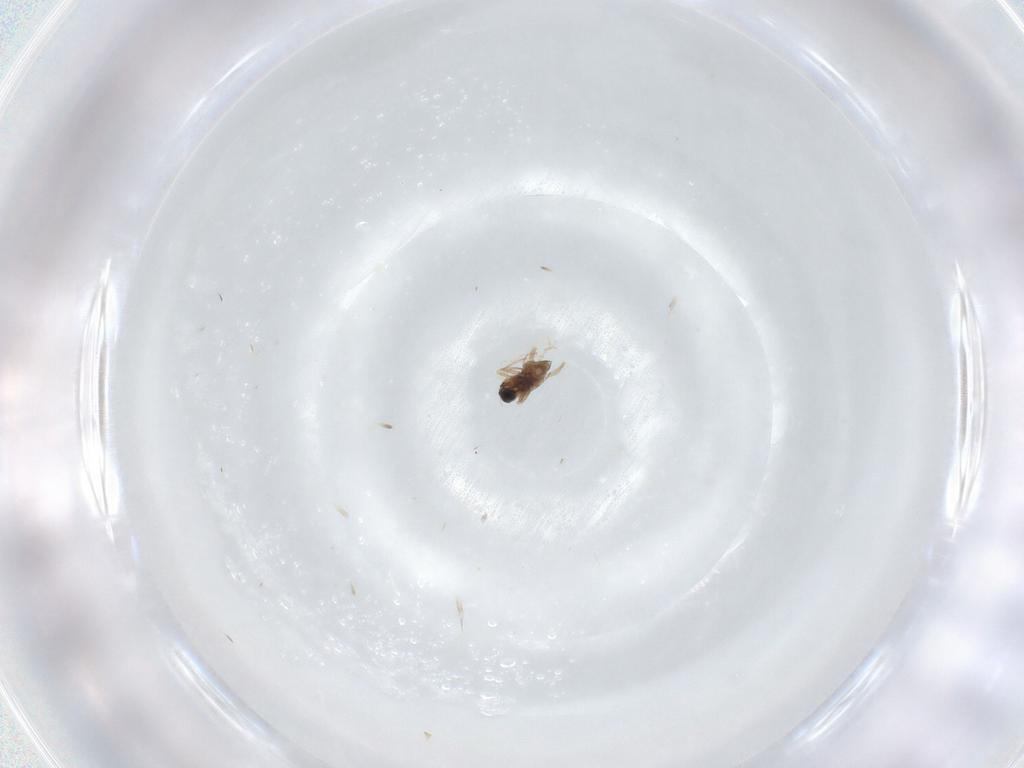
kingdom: Animalia
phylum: Arthropoda
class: Insecta
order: Diptera
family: Cecidomyiidae
